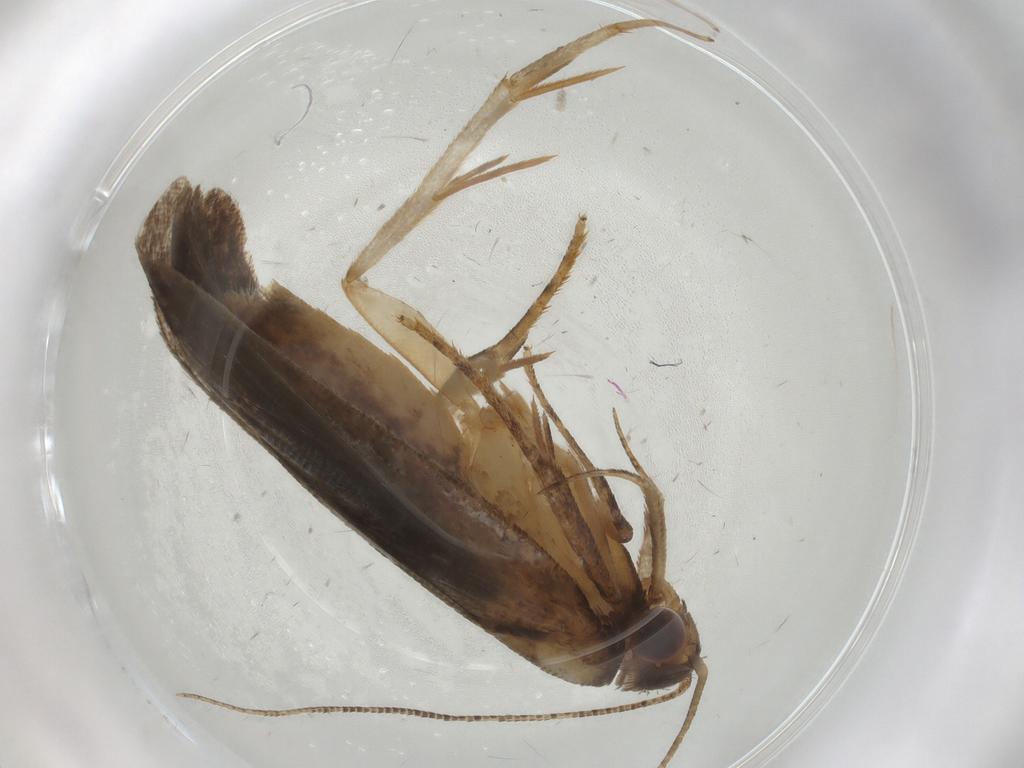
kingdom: Animalia
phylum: Arthropoda
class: Insecta
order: Lepidoptera
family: Gelechiidae
